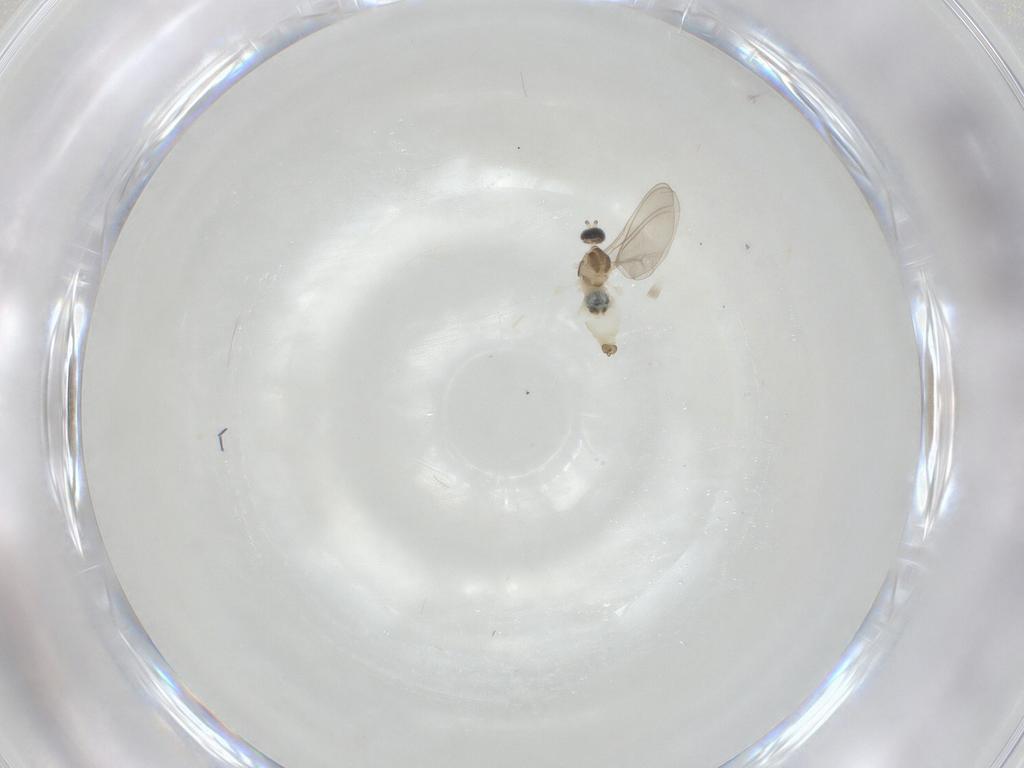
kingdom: Animalia
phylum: Arthropoda
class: Insecta
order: Diptera
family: Cecidomyiidae
